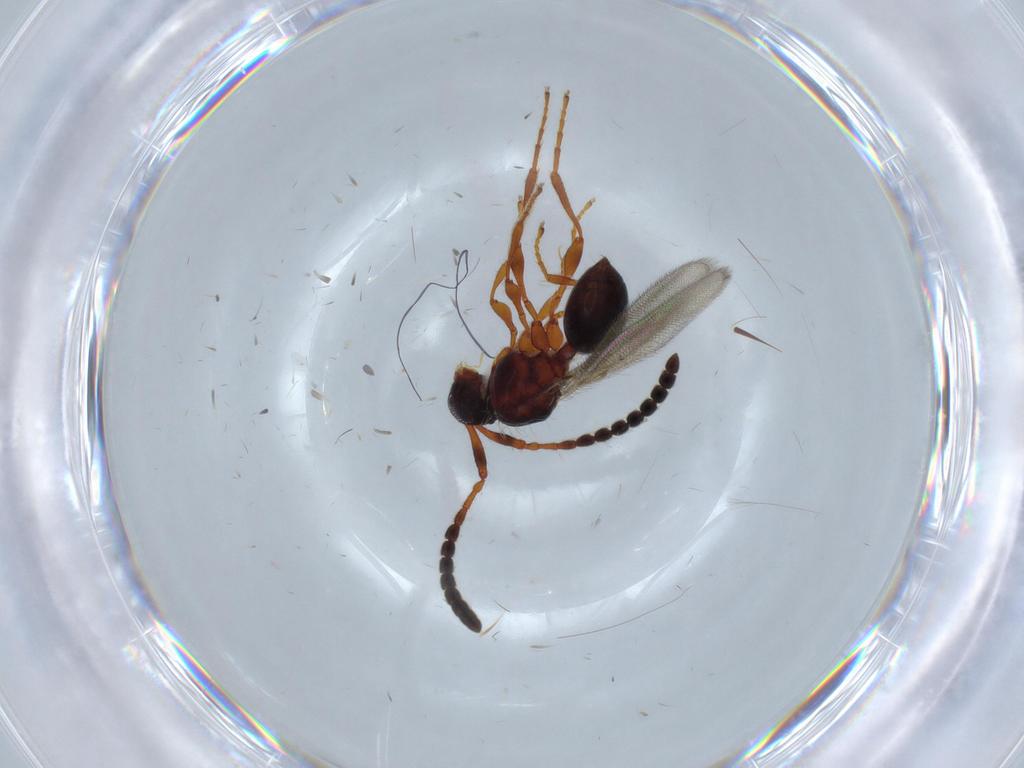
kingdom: Animalia
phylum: Arthropoda
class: Insecta
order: Hymenoptera
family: Diapriidae
